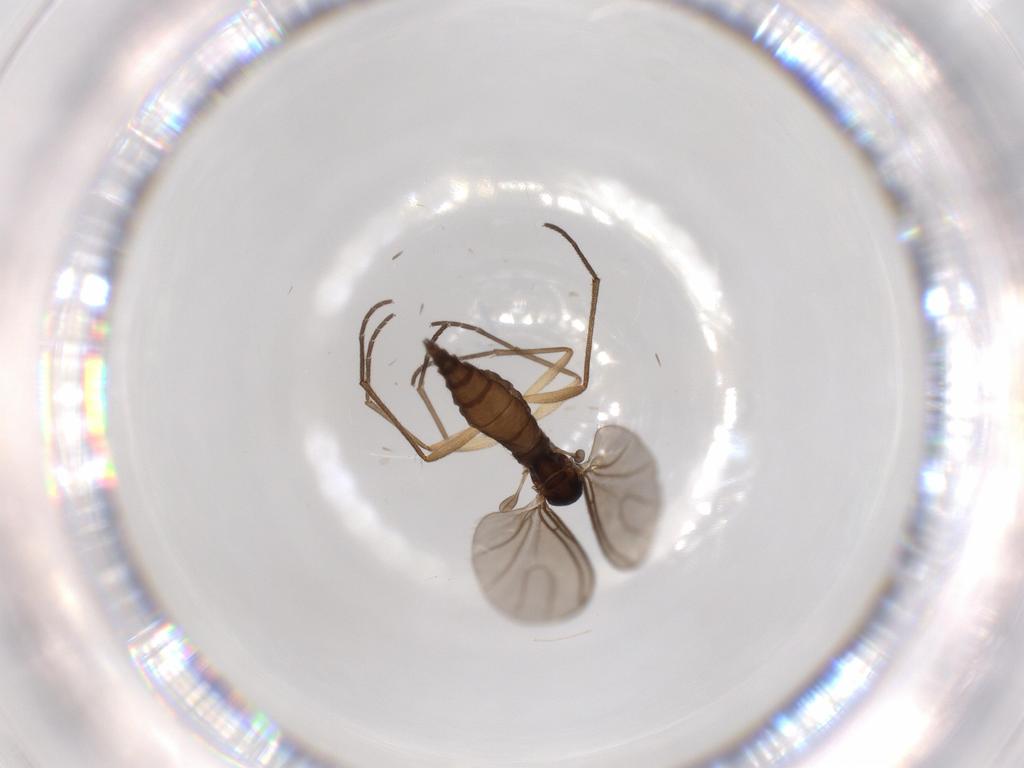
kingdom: Animalia
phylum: Arthropoda
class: Insecta
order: Diptera
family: Sciaridae
